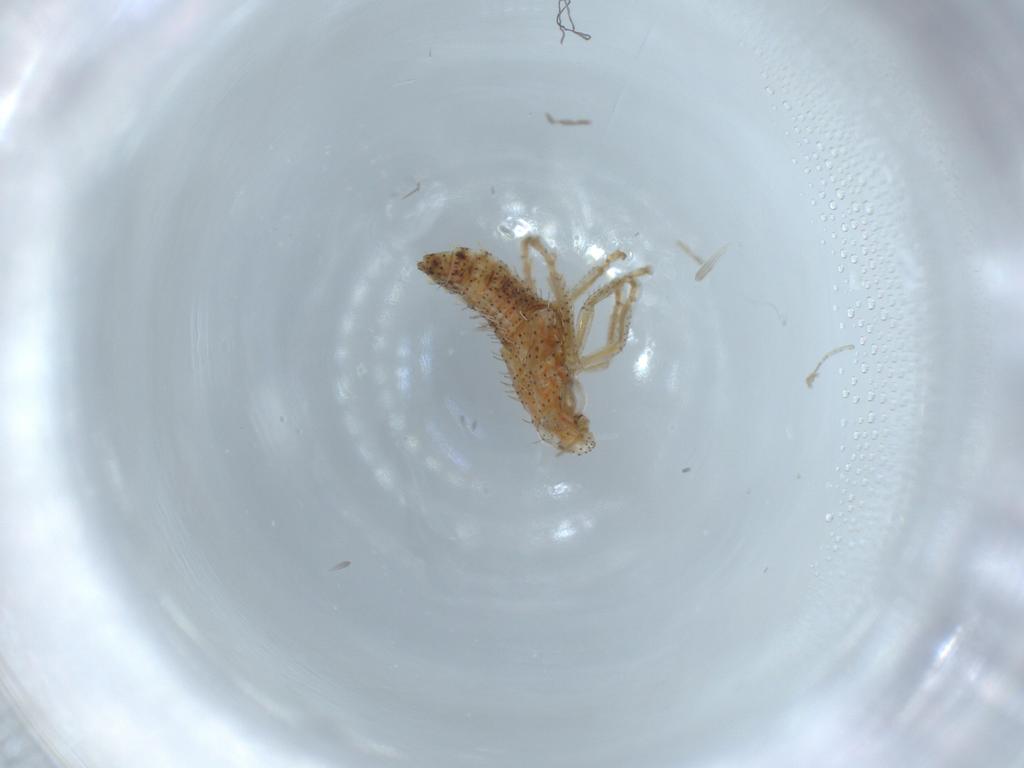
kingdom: Animalia
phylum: Arthropoda
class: Insecta
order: Hemiptera
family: Cicadellidae
